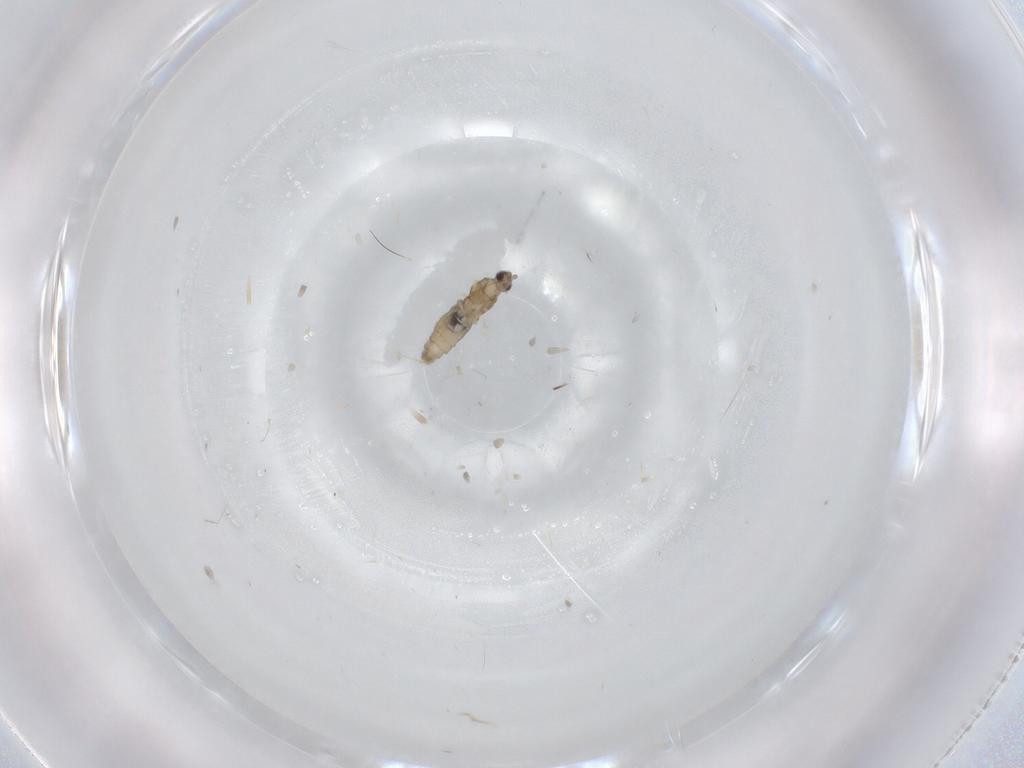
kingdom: Animalia
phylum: Arthropoda
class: Insecta
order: Diptera
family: Cecidomyiidae
